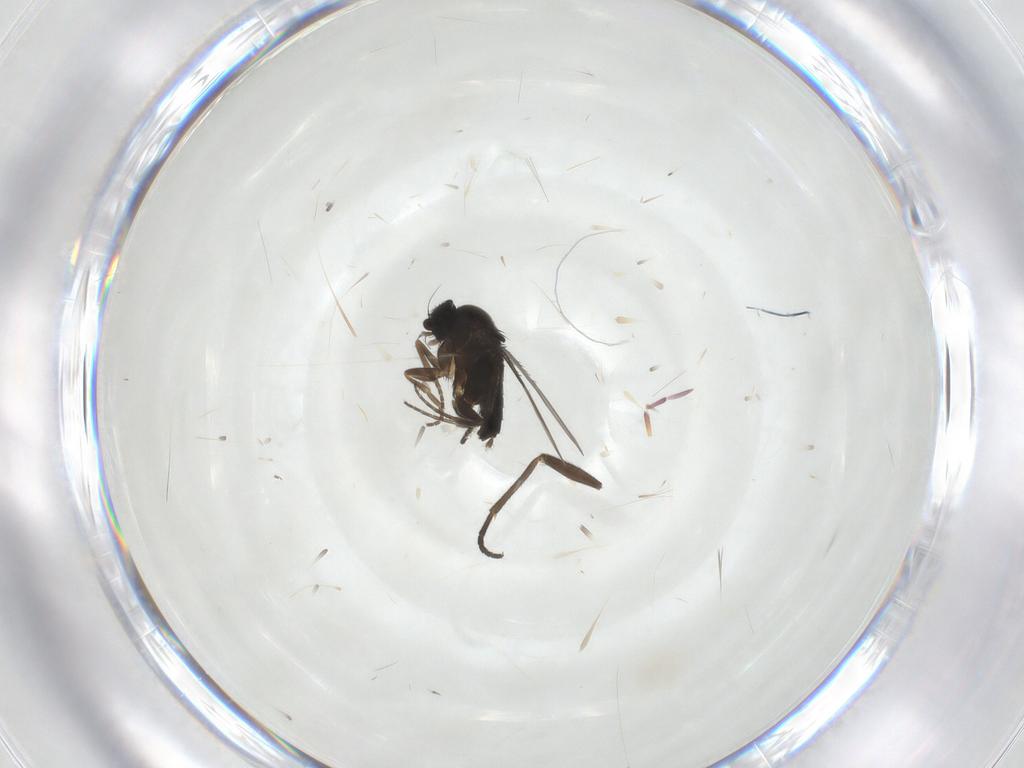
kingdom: Animalia
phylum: Arthropoda
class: Insecta
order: Diptera
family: Phoridae
